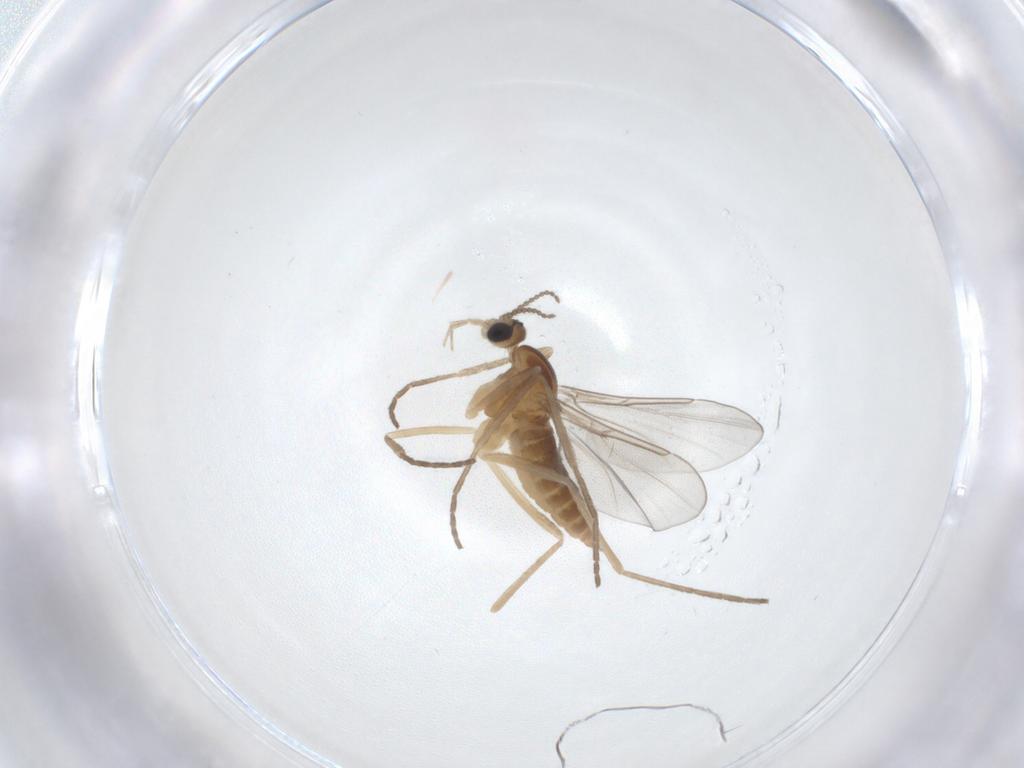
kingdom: Animalia
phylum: Arthropoda
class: Insecta
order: Diptera
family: Cecidomyiidae
